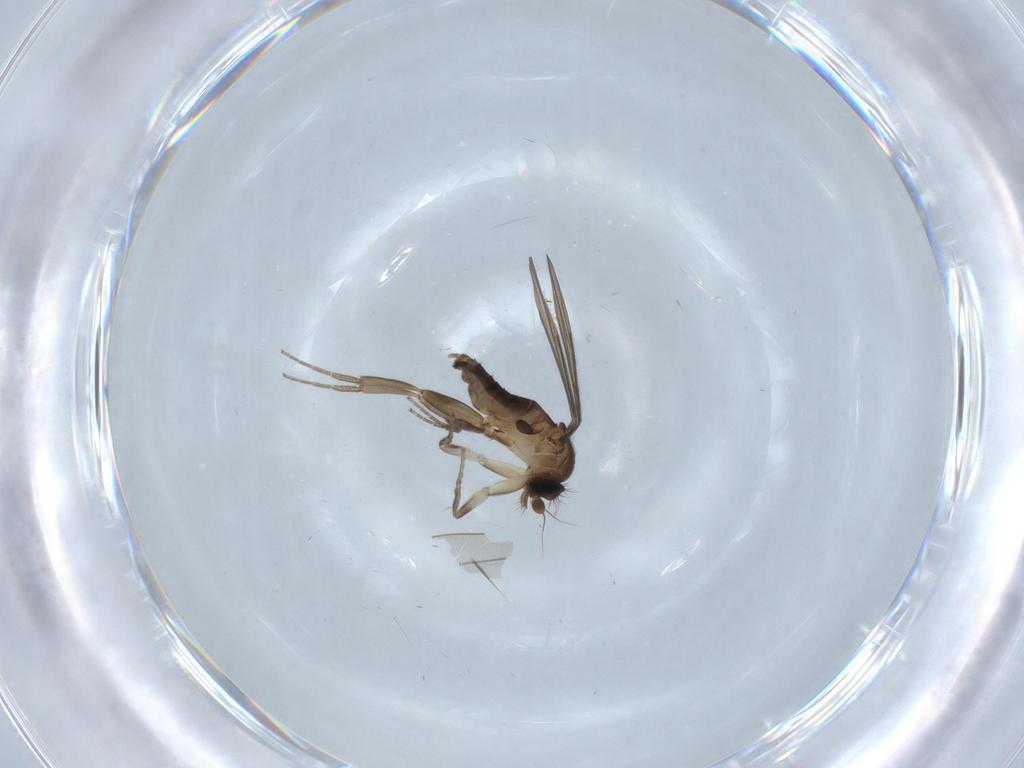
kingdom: Animalia
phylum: Arthropoda
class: Insecta
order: Diptera
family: Cecidomyiidae
